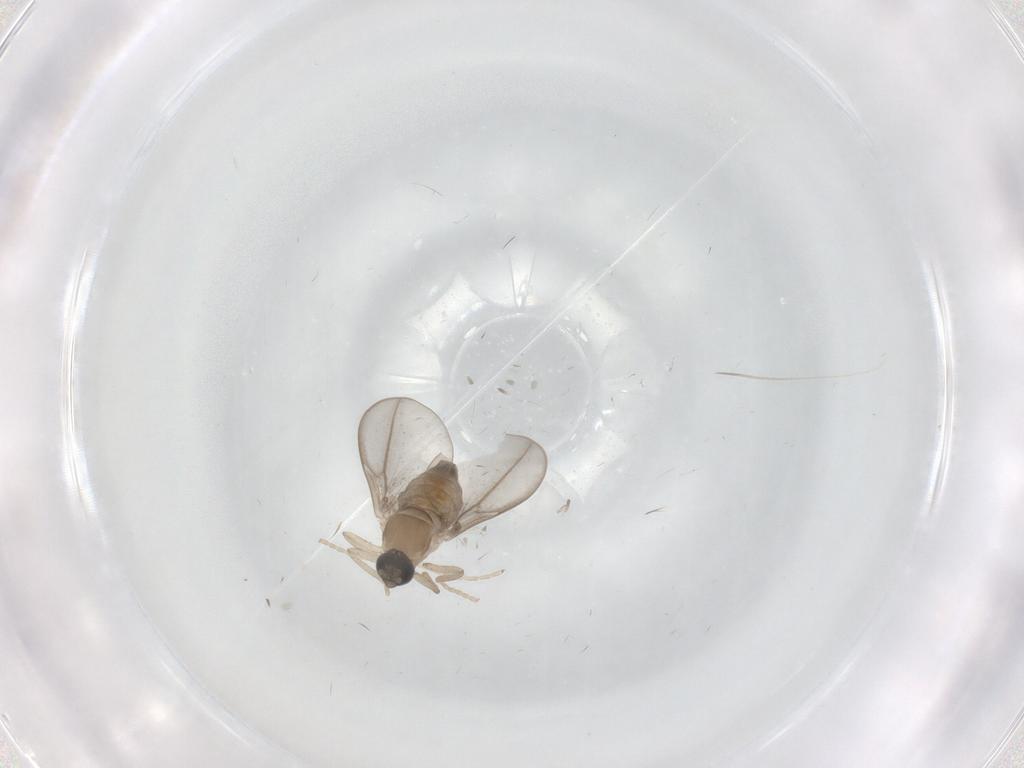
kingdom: Animalia
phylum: Arthropoda
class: Insecta
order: Diptera
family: Cecidomyiidae
